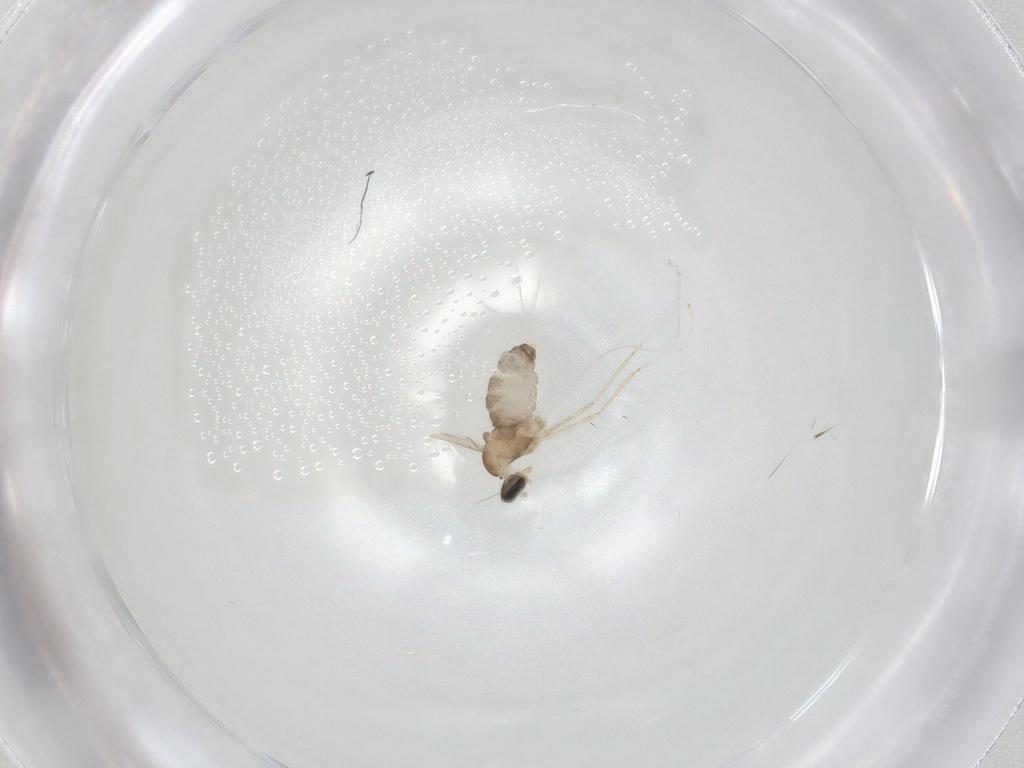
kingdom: Animalia
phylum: Arthropoda
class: Insecta
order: Diptera
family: Cecidomyiidae
